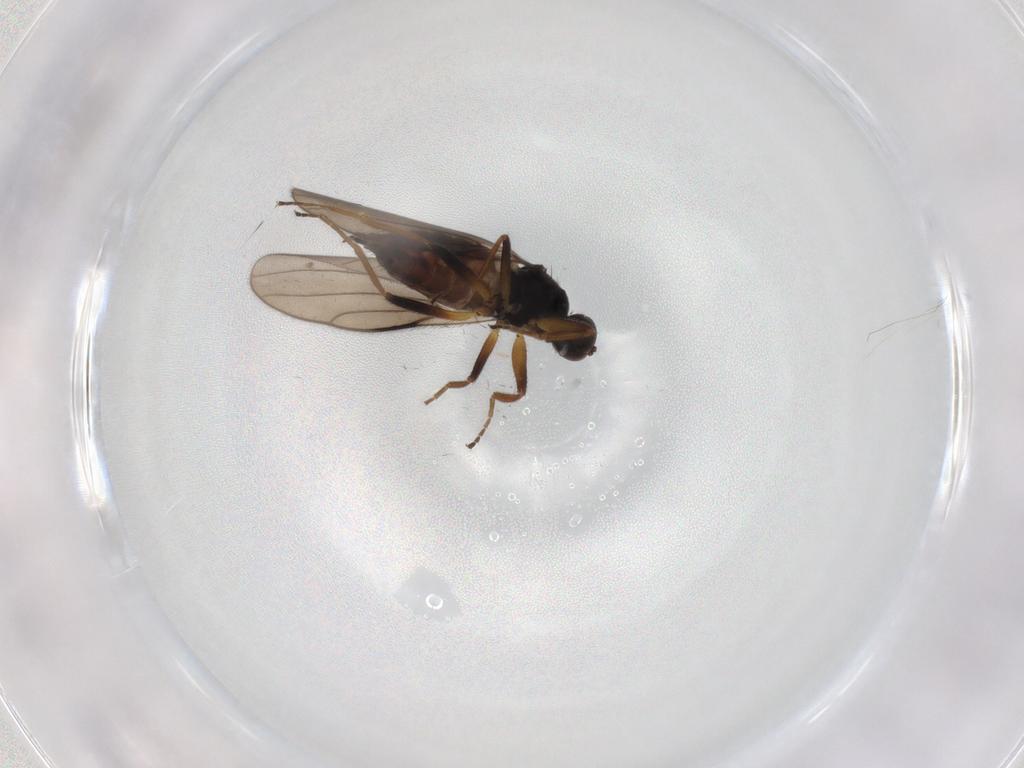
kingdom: Animalia
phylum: Arthropoda
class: Insecta
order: Diptera
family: Hybotidae
